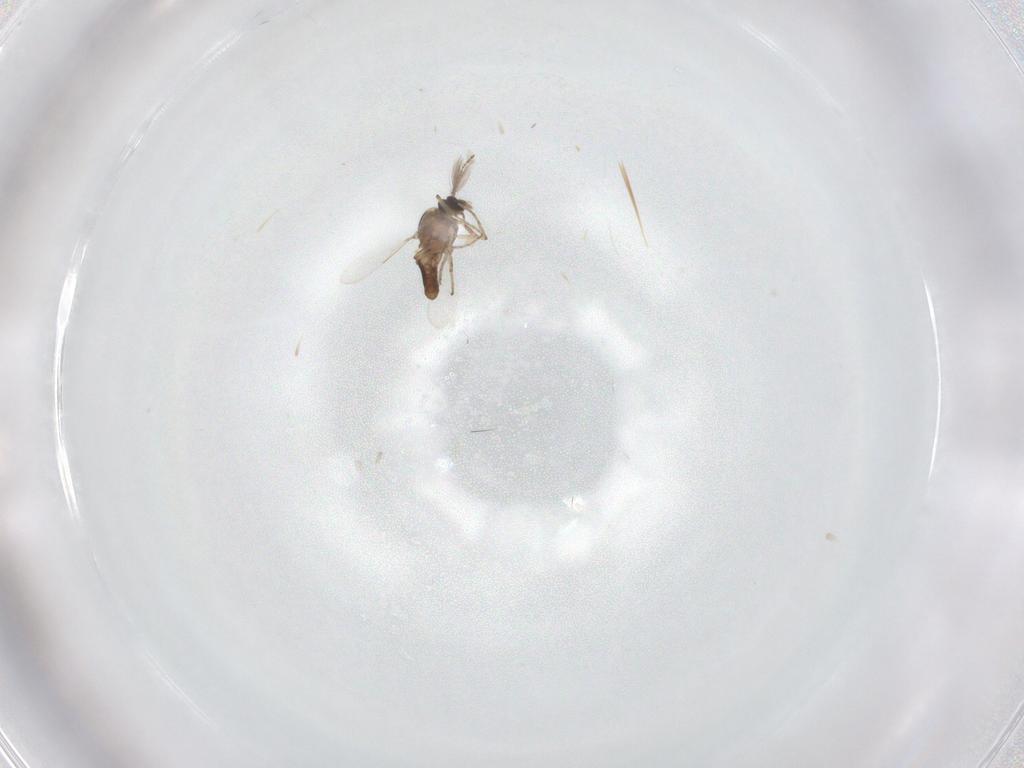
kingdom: Animalia
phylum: Arthropoda
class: Insecta
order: Diptera
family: Ceratopogonidae
